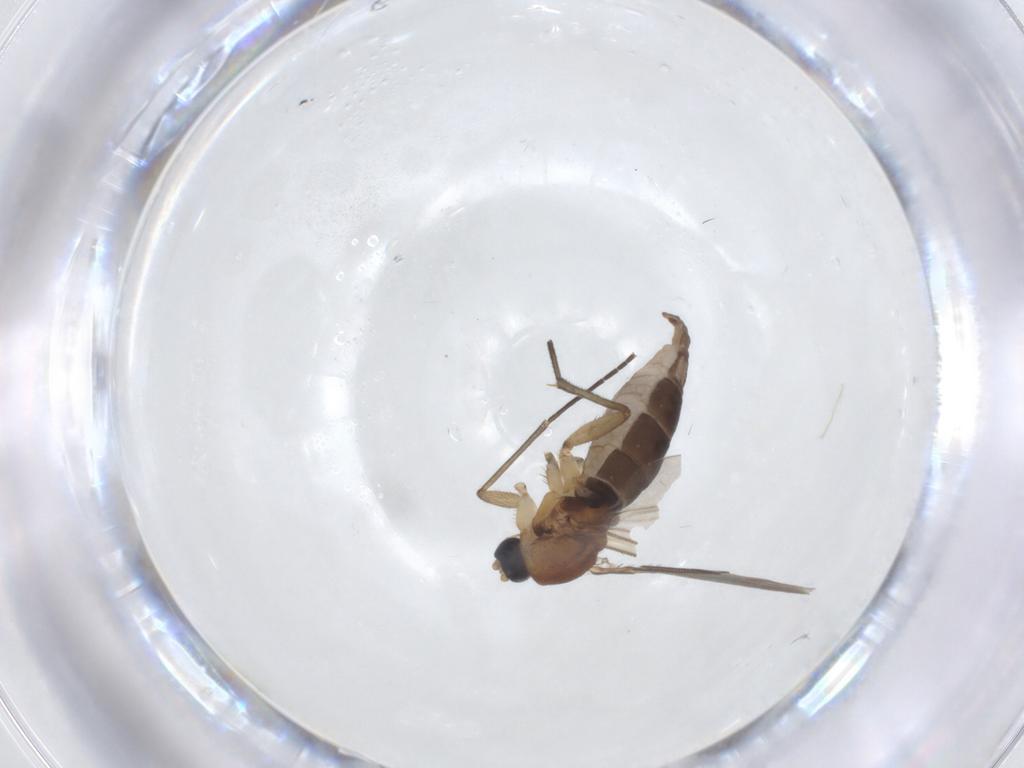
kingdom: Animalia
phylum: Arthropoda
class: Insecta
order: Diptera
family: Sciaridae
